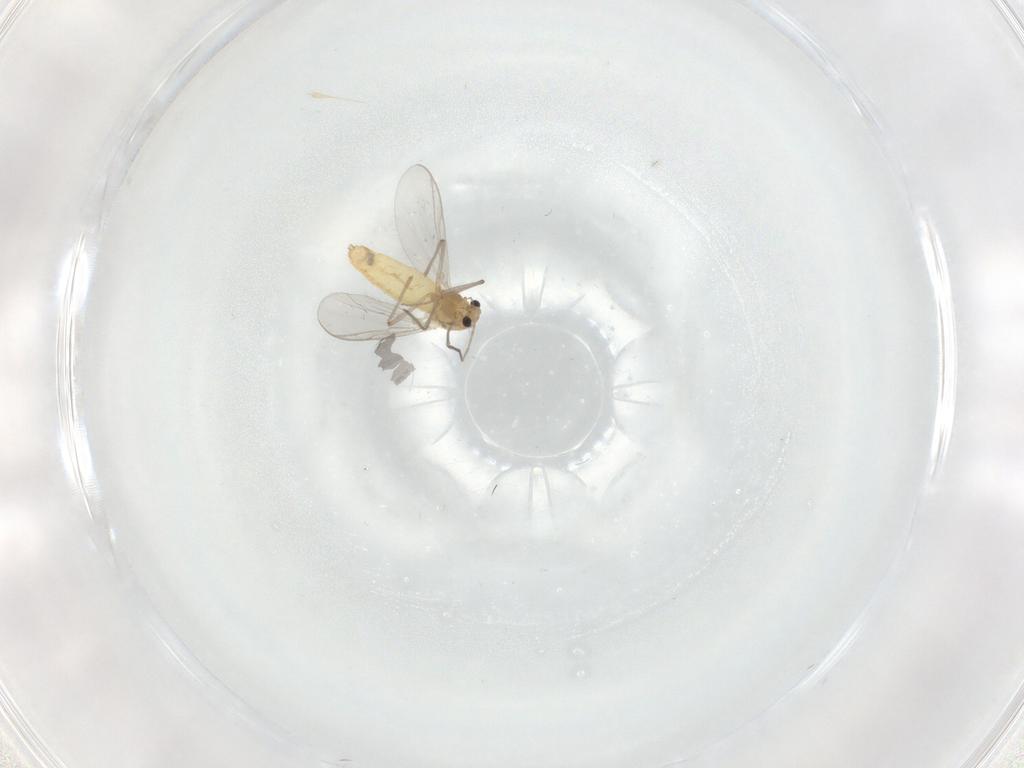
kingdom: Animalia
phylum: Arthropoda
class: Insecta
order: Diptera
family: Chironomidae
